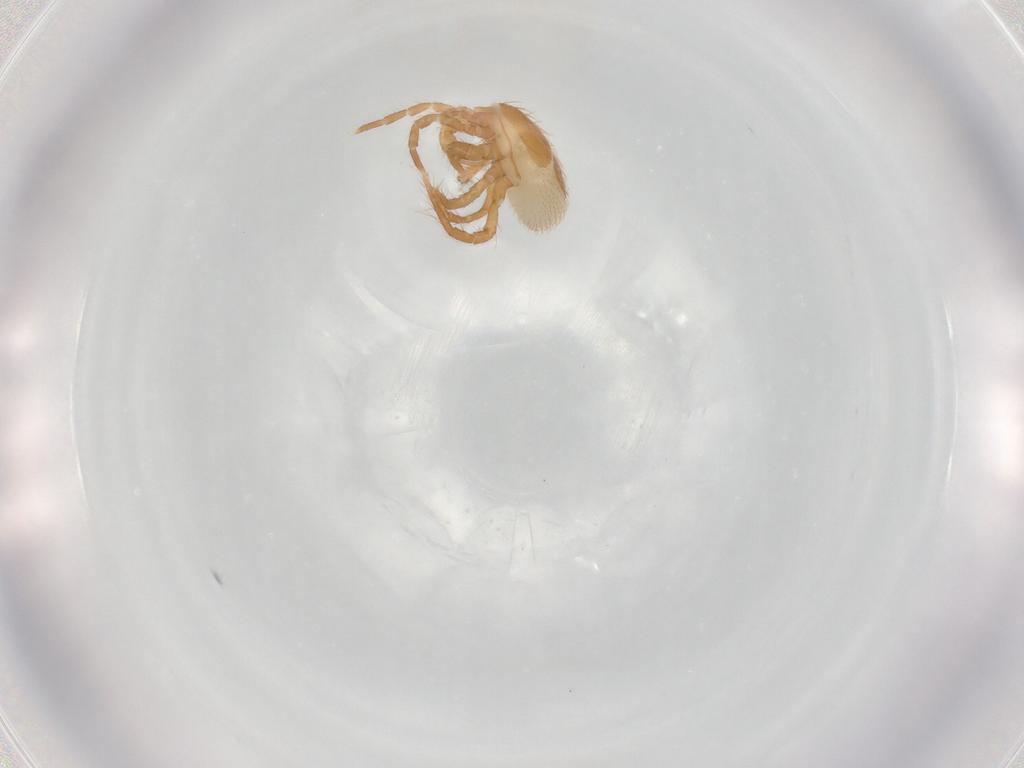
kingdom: Animalia
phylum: Arthropoda
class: Arachnida
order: Mesostigmata
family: Parasitidae
